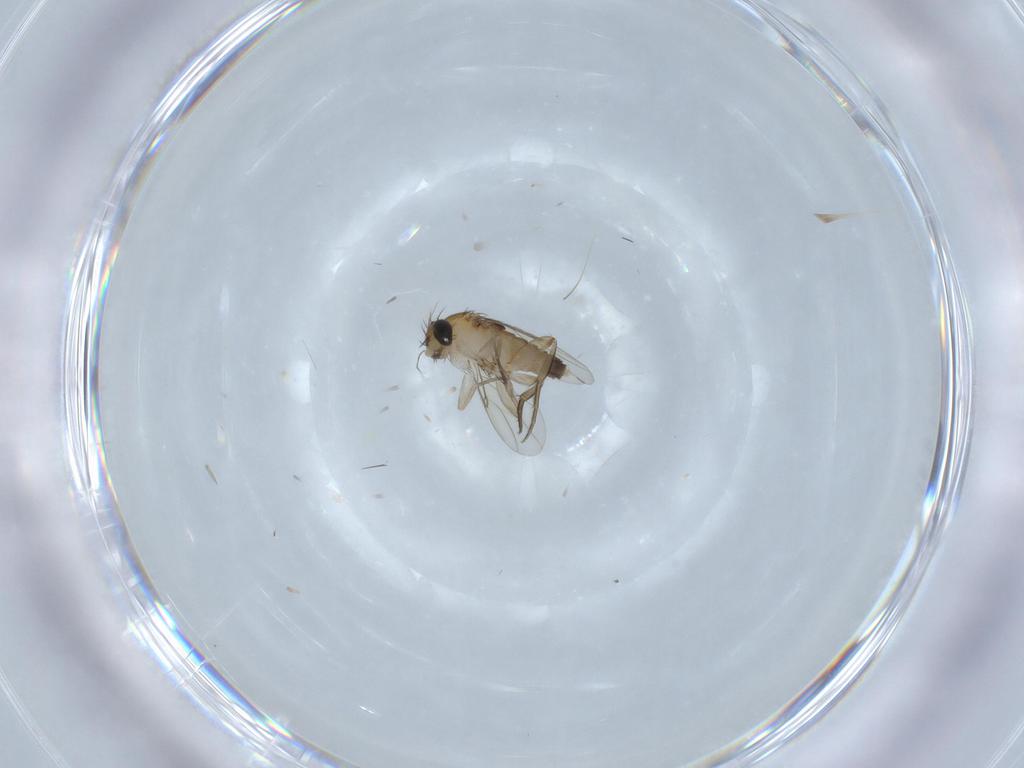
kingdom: Animalia
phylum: Arthropoda
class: Insecta
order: Diptera
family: Phoridae
